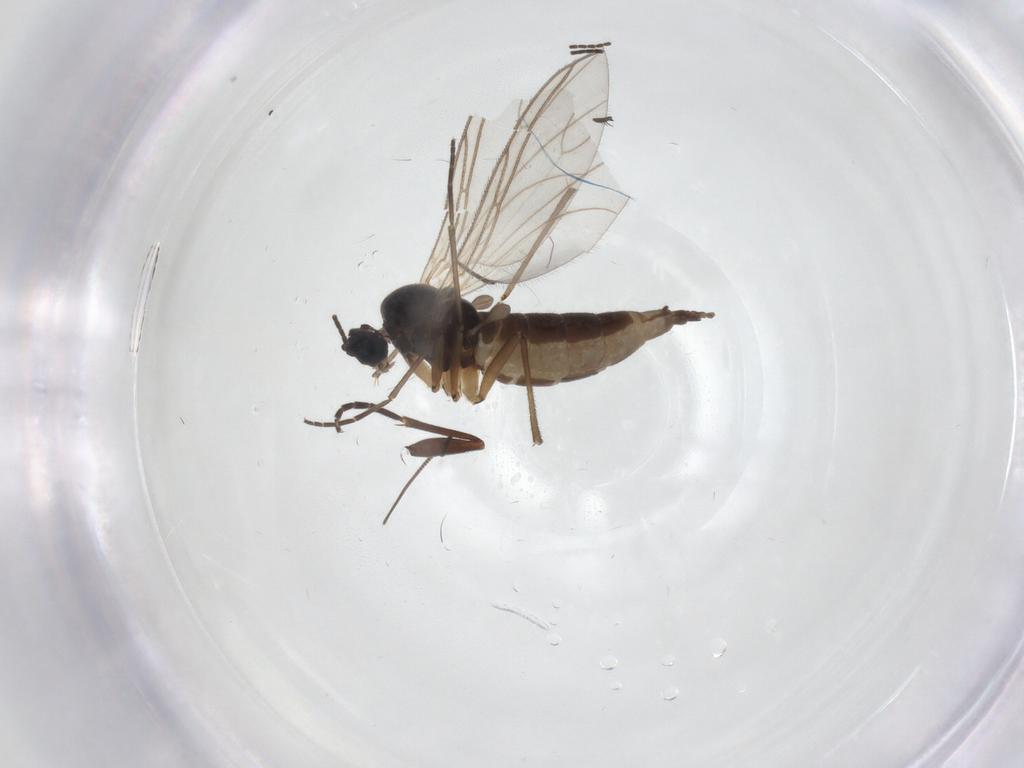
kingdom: Animalia
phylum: Arthropoda
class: Insecta
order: Diptera
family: Sciaridae
